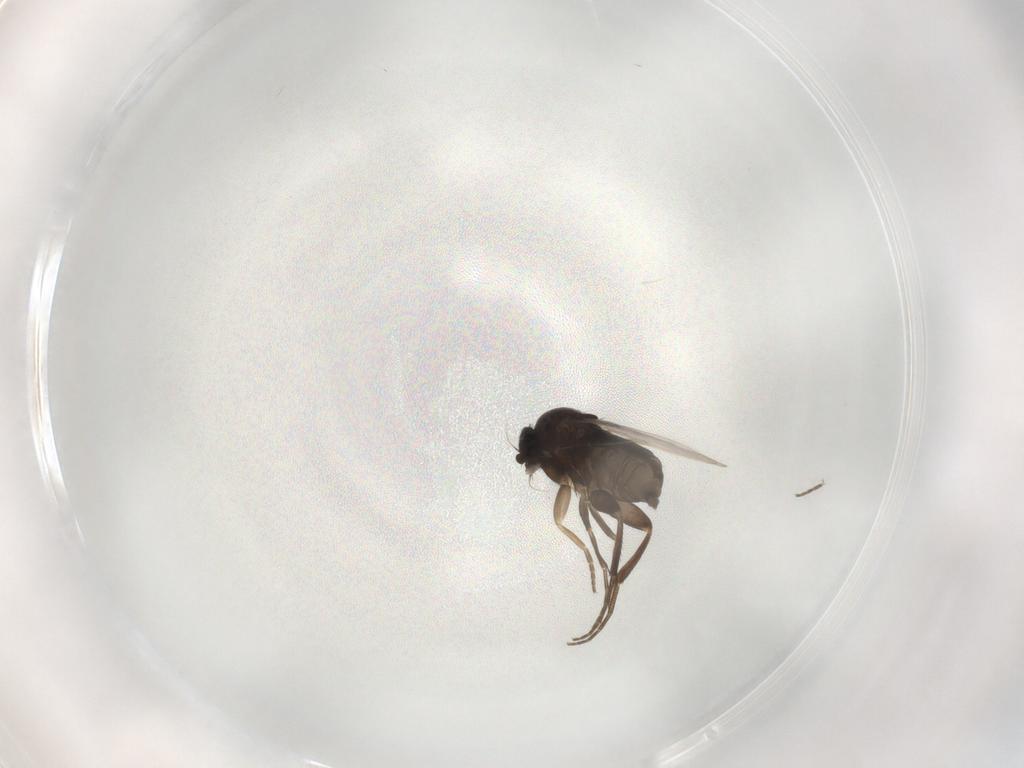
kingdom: Animalia
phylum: Arthropoda
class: Insecta
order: Diptera
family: Phoridae
